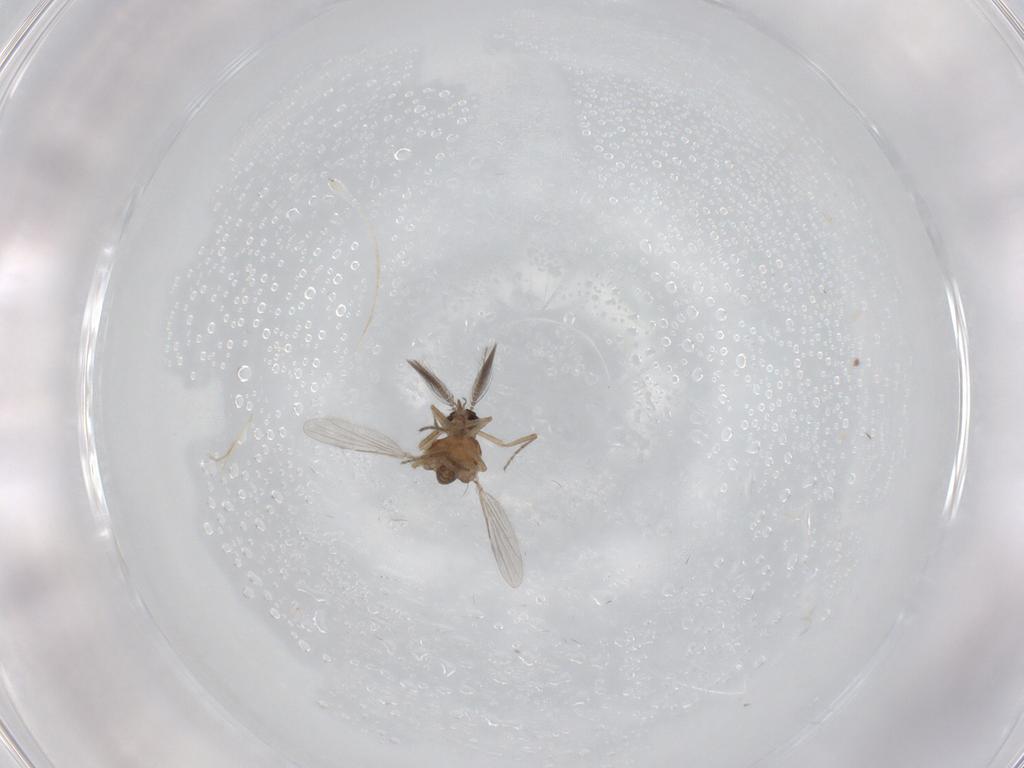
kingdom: Animalia
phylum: Arthropoda
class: Insecta
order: Diptera
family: Ceratopogonidae
